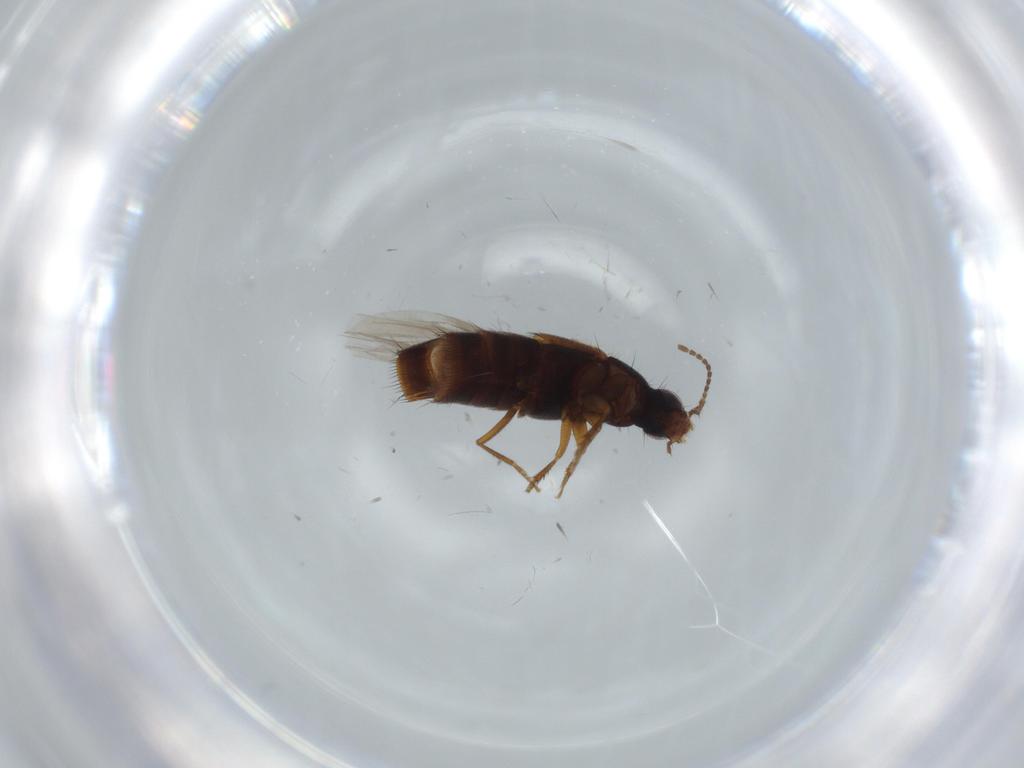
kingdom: Animalia
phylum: Arthropoda
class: Insecta
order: Coleoptera
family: Chrysomelidae
